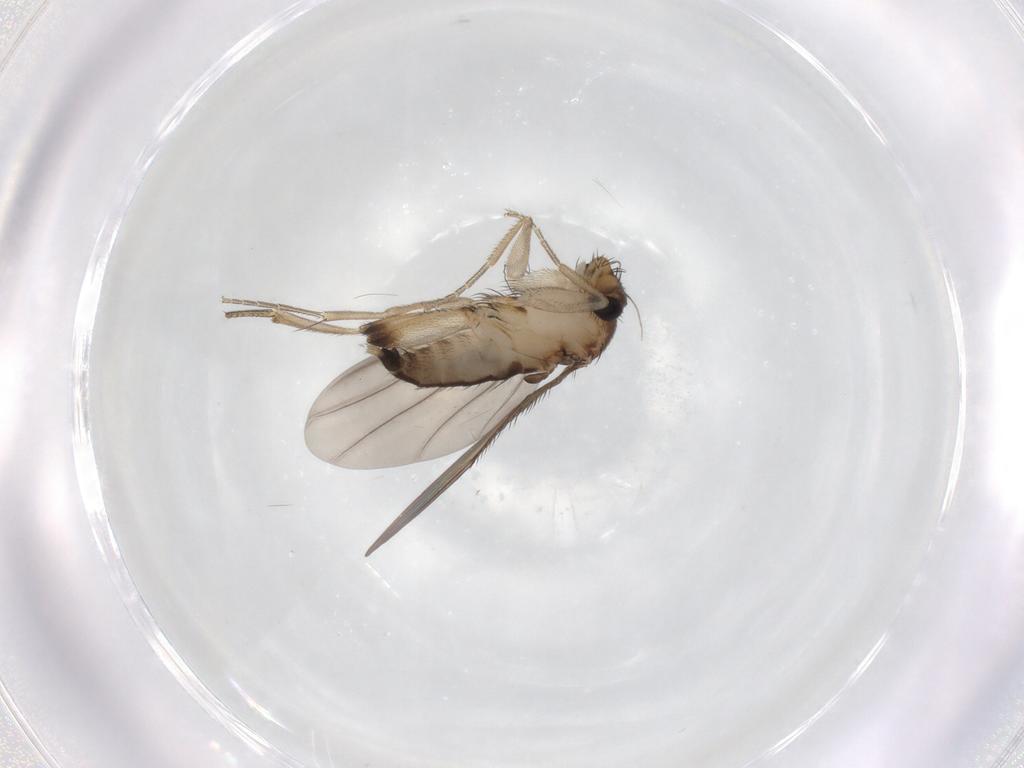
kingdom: Animalia
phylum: Arthropoda
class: Insecta
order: Diptera
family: Phoridae
